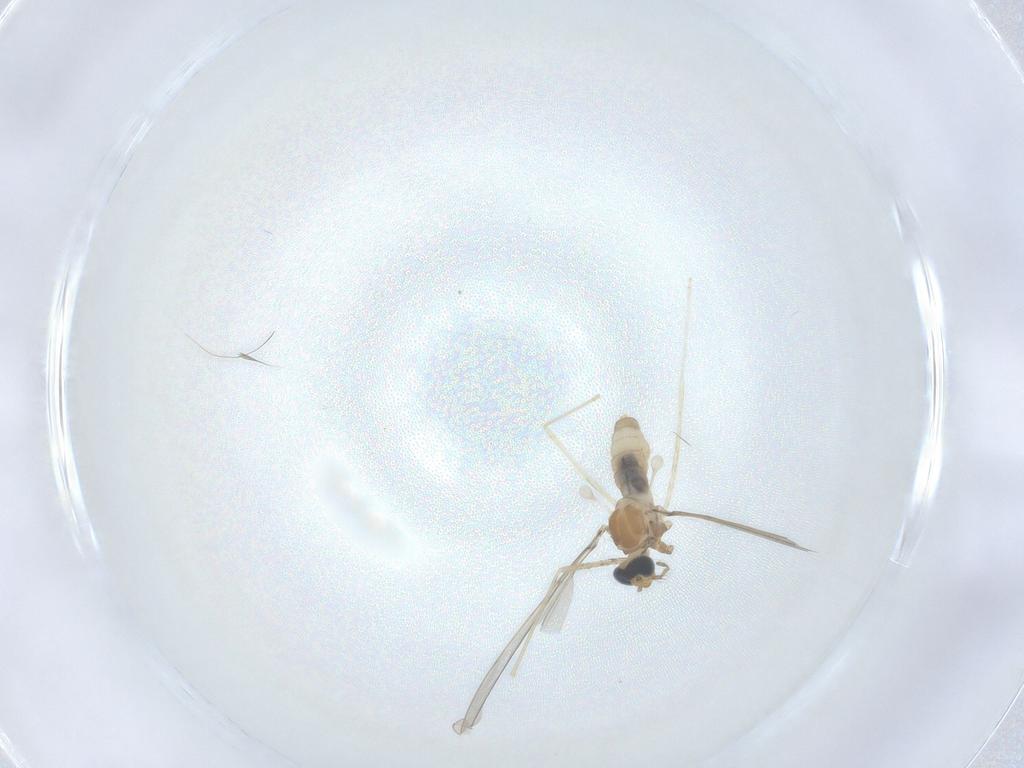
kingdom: Animalia
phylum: Arthropoda
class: Insecta
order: Diptera
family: Cecidomyiidae
